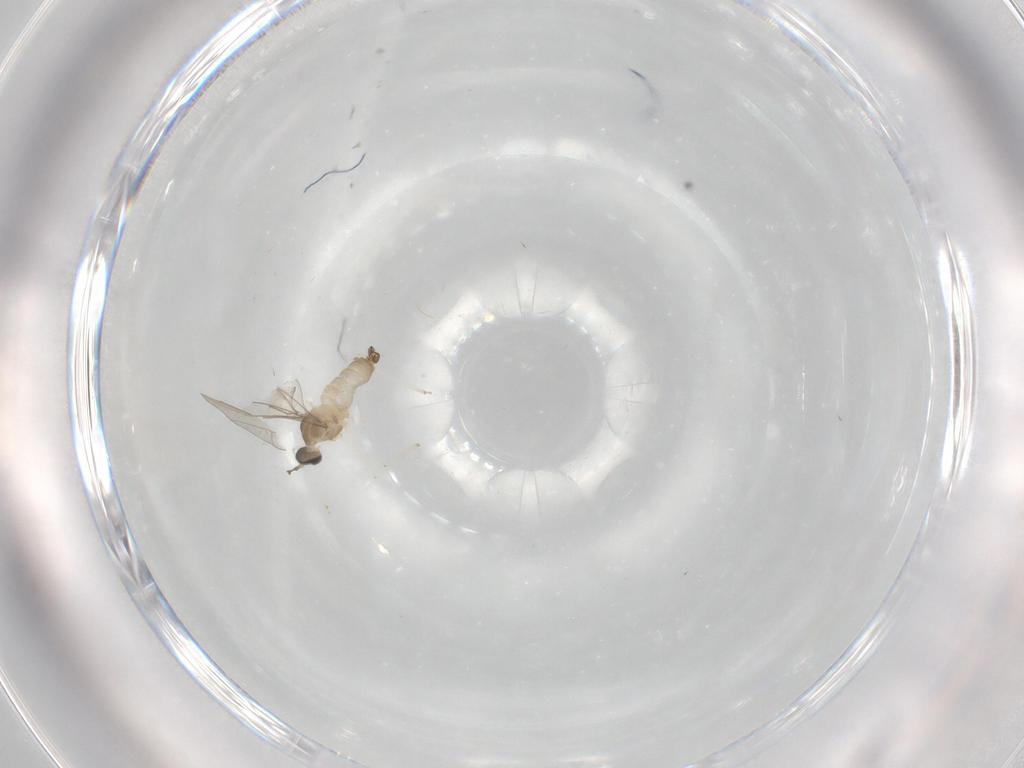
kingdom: Animalia
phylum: Arthropoda
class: Insecta
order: Diptera
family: Cecidomyiidae
